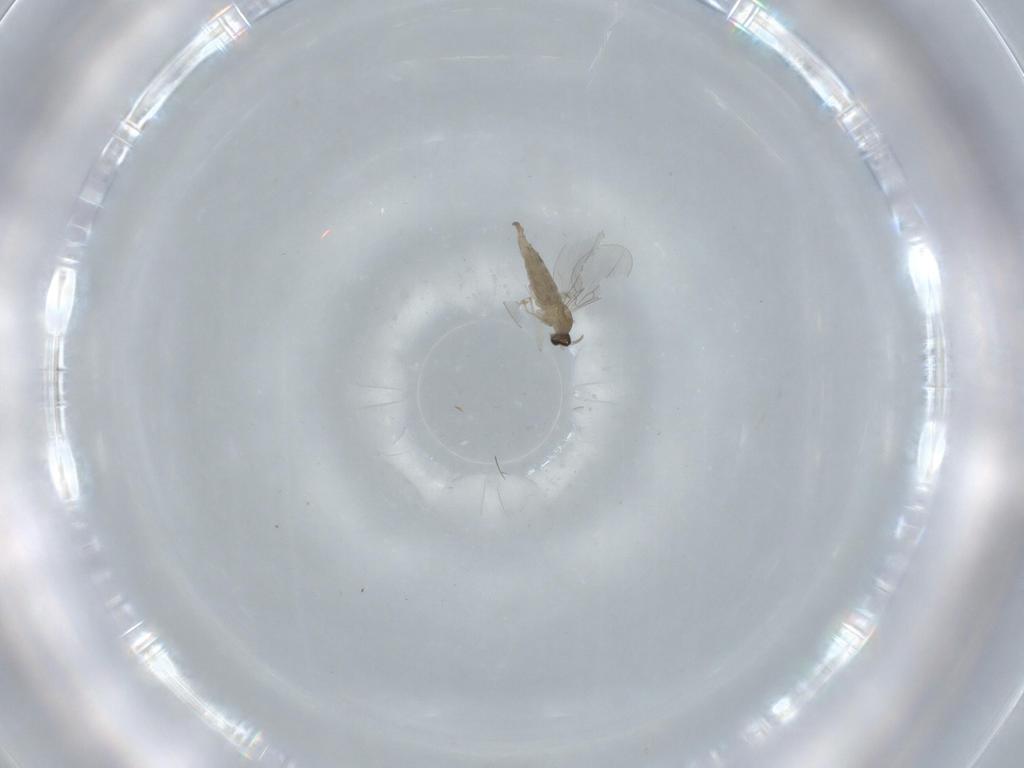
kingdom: Animalia
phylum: Arthropoda
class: Insecta
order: Diptera
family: Cecidomyiidae
